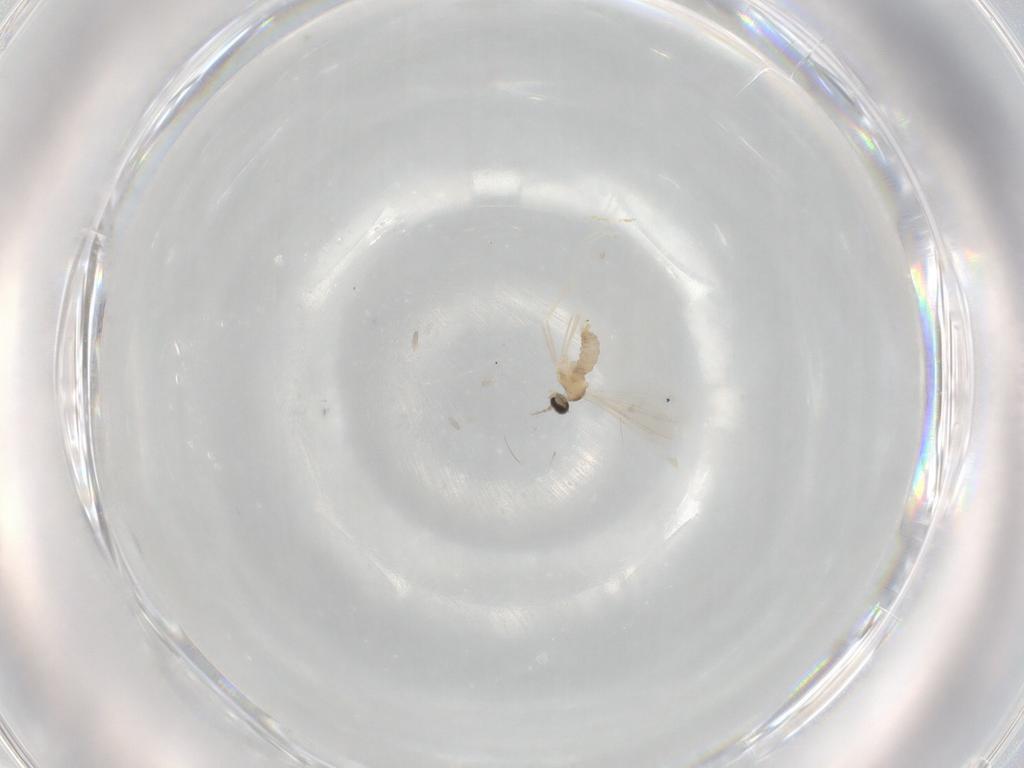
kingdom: Animalia
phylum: Arthropoda
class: Insecta
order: Diptera
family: Cecidomyiidae
